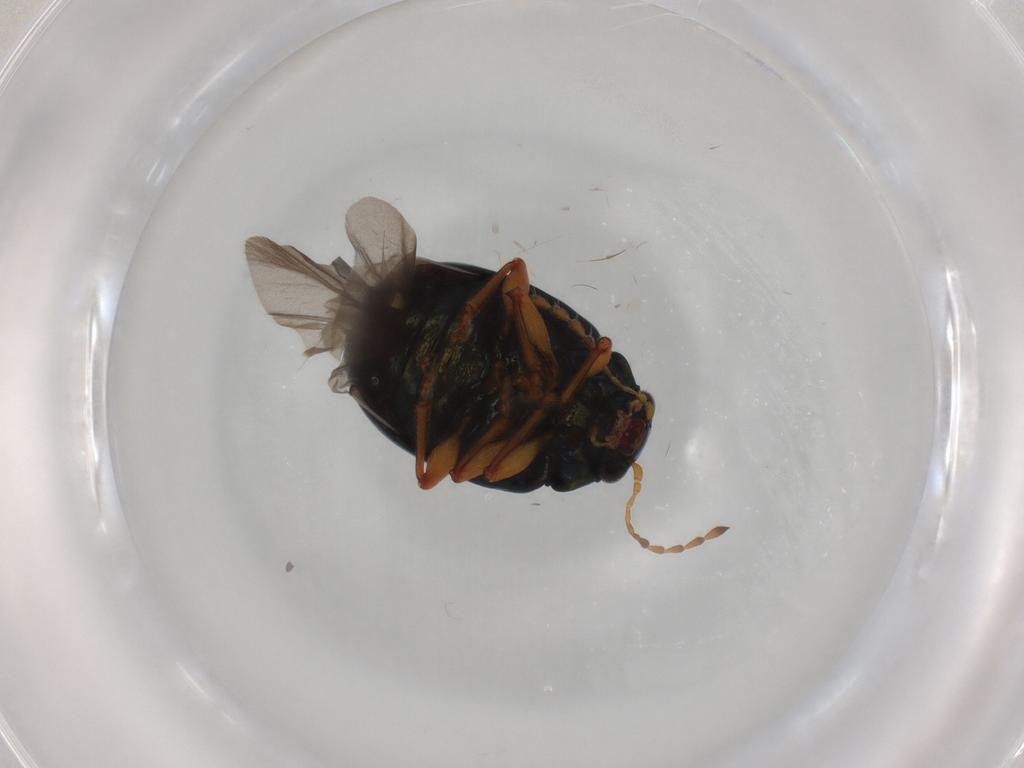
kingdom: Animalia
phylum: Arthropoda
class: Insecta
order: Coleoptera
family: Chrysomelidae
